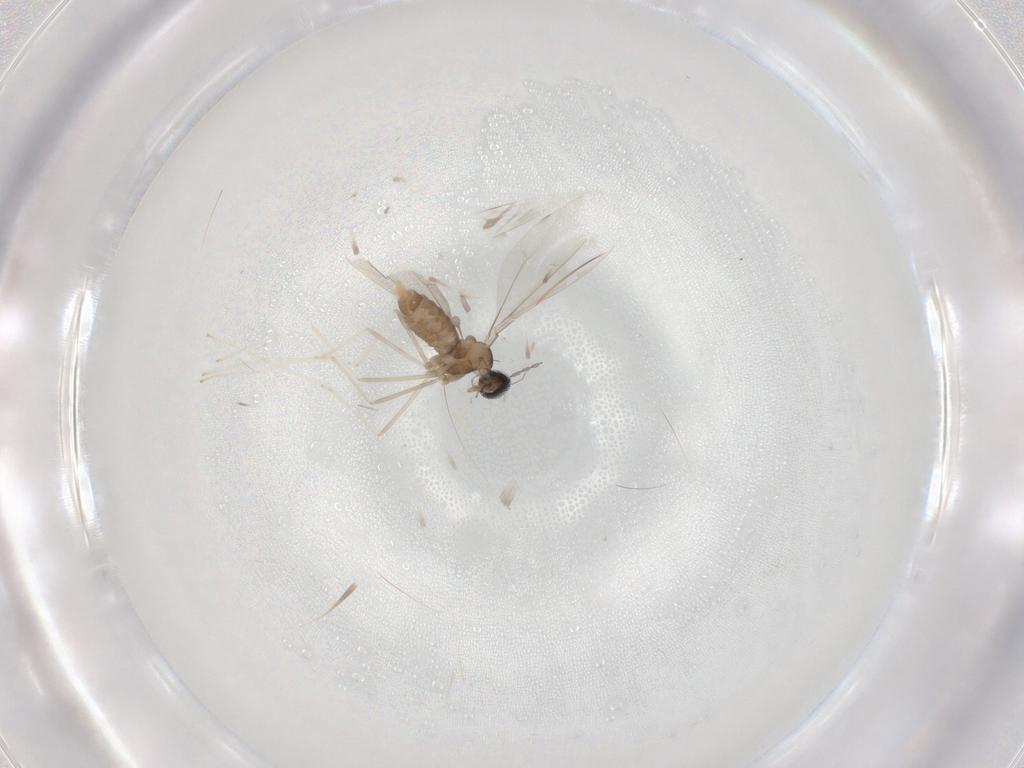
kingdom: Animalia
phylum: Arthropoda
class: Insecta
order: Diptera
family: Cecidomyiidae
